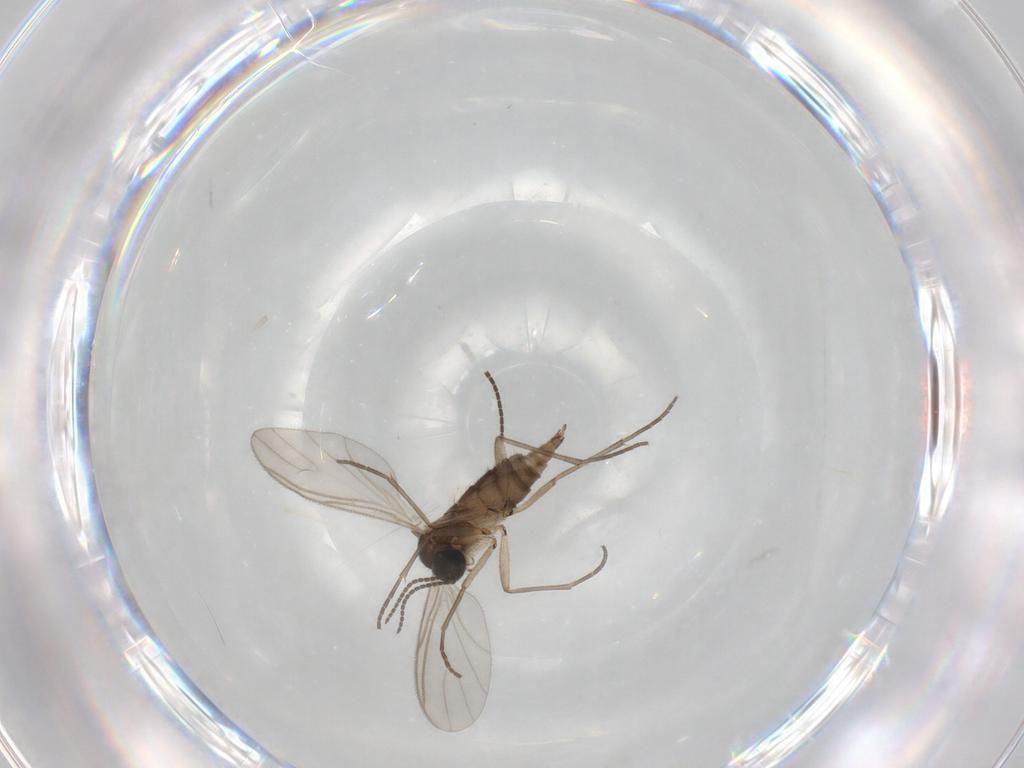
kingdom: Animalia
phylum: Arthropoda
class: Insecta
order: Diptera
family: Sciaridae
